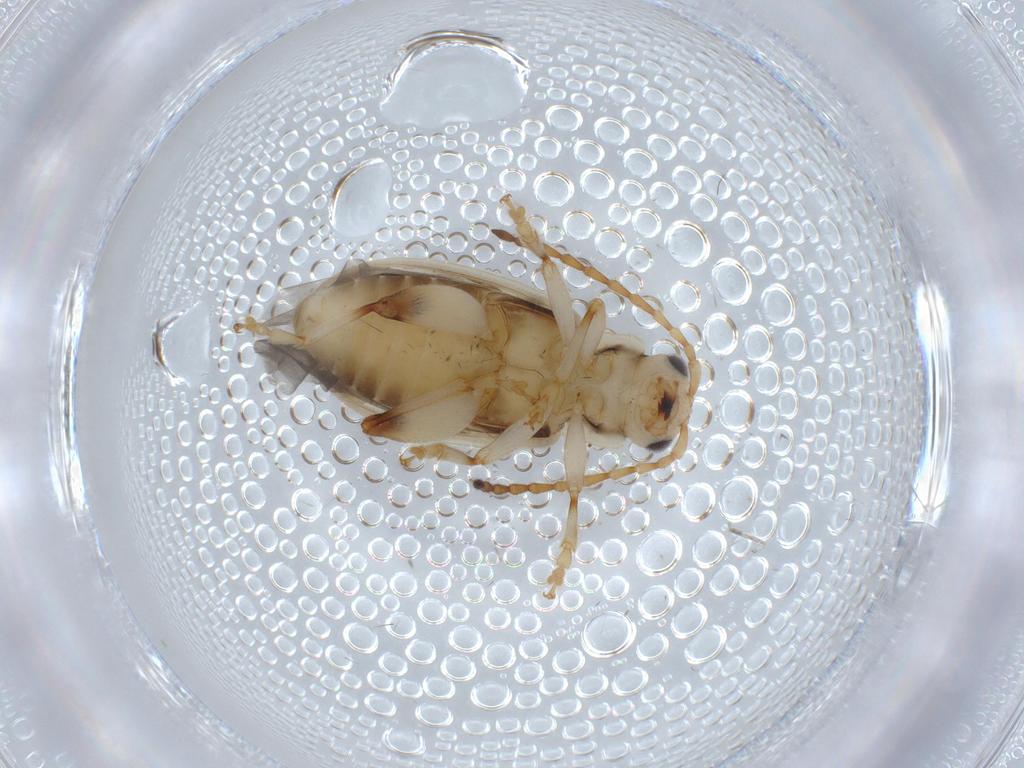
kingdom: Animalia
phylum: Arthropoda
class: Insecta
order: Coleoptera
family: Chrysomelidae
